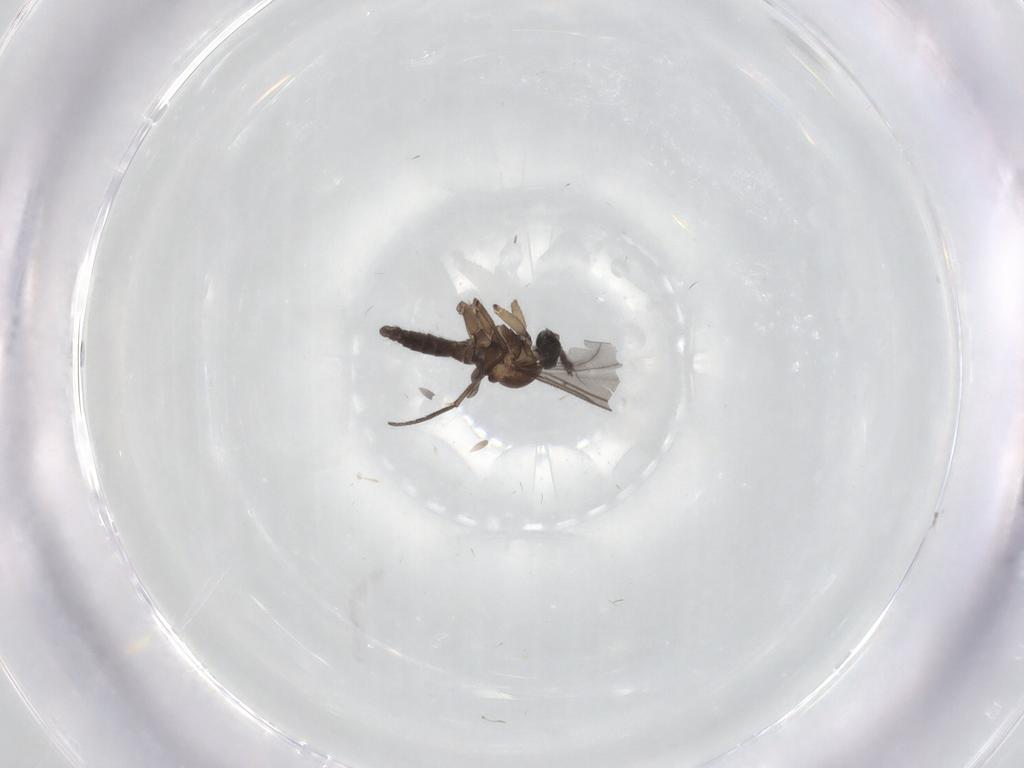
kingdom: Animalia
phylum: Arthropoda
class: Insecta
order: Diptera
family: Sciaridae
